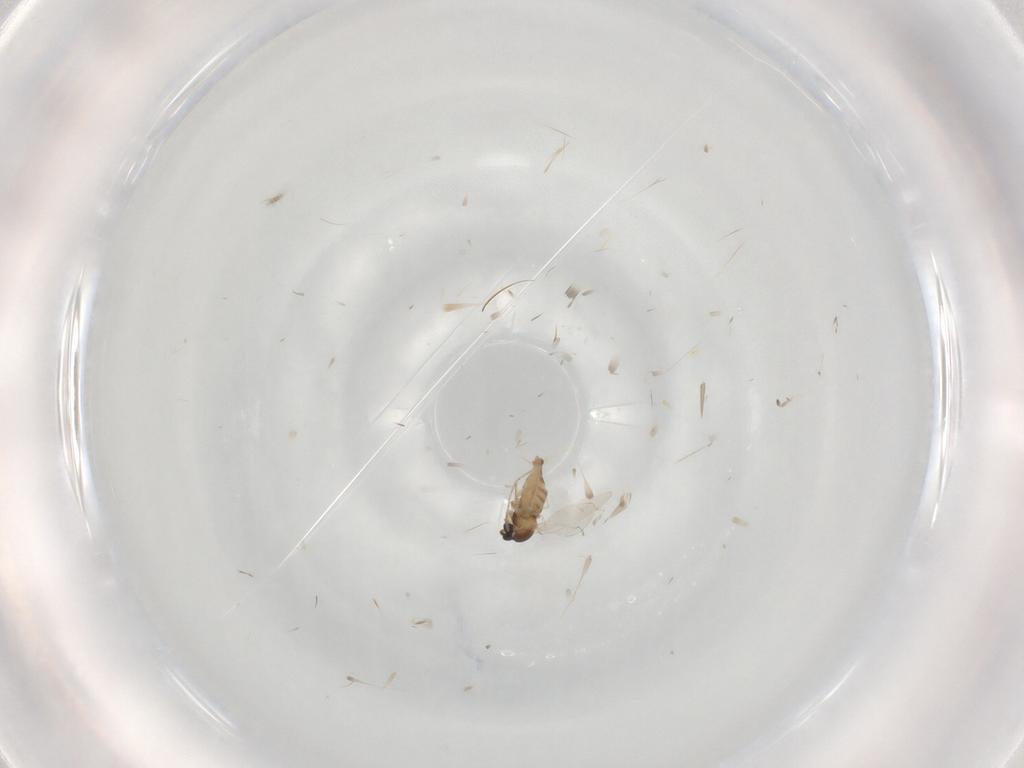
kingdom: Animalia
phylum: Arthropoda
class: Insecta
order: Diptera
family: Cecidomyiidae
